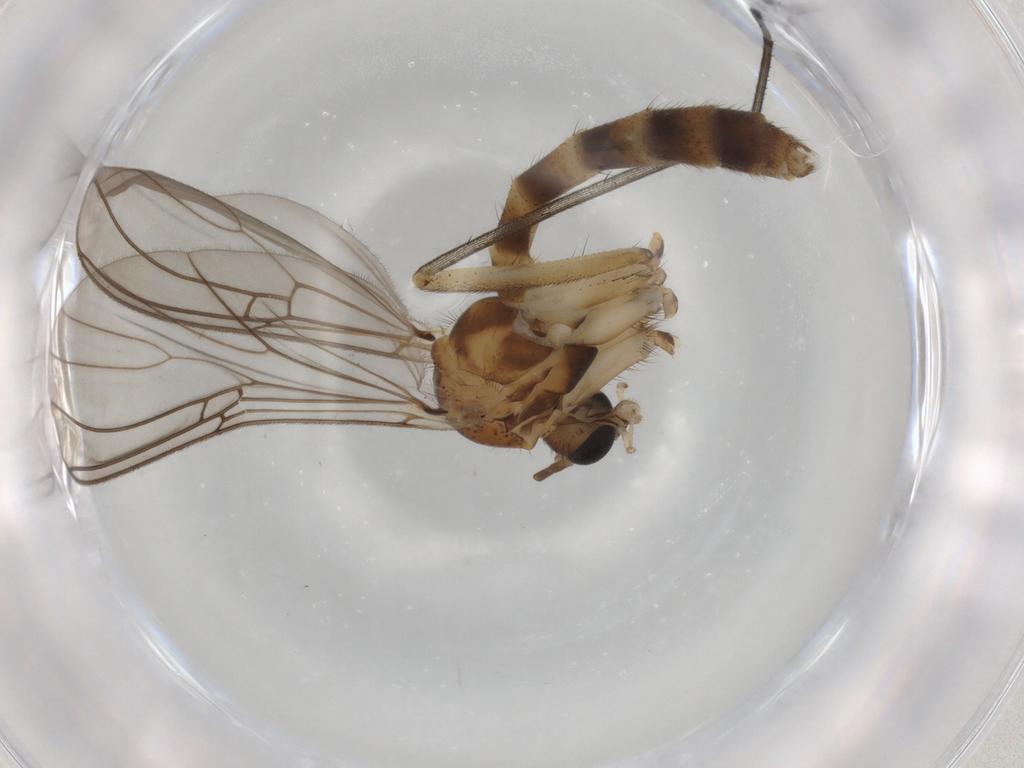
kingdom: Animalia
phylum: Arthropoda
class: Insecta
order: Diptera
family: Mycetophilidae
